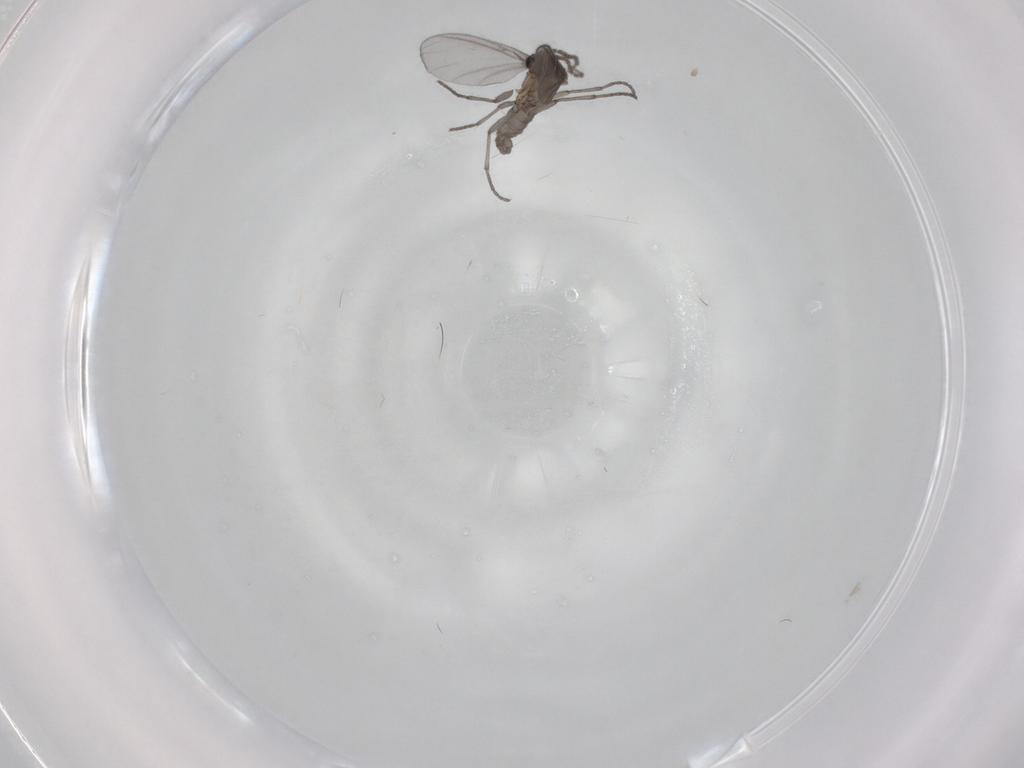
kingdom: Animalia
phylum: Arthropoda
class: Insecta
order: Diptera
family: Sciaridae
